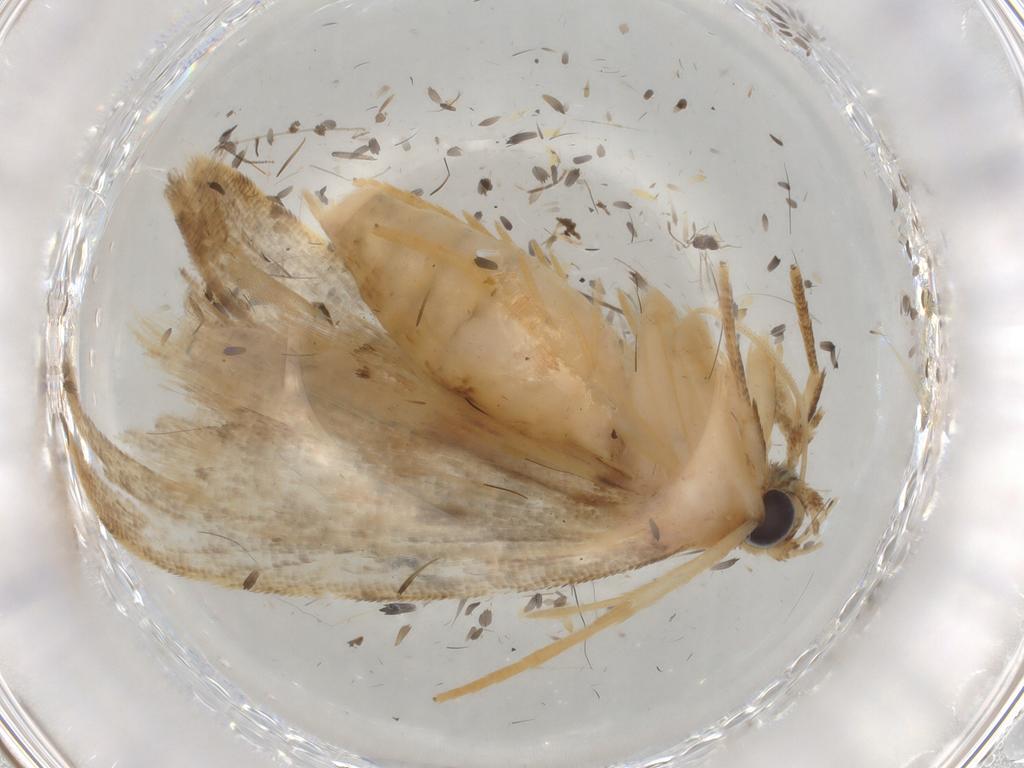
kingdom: Animalia
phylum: Arthropoda
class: Insecta
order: Lepidoptera
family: Erebidae
